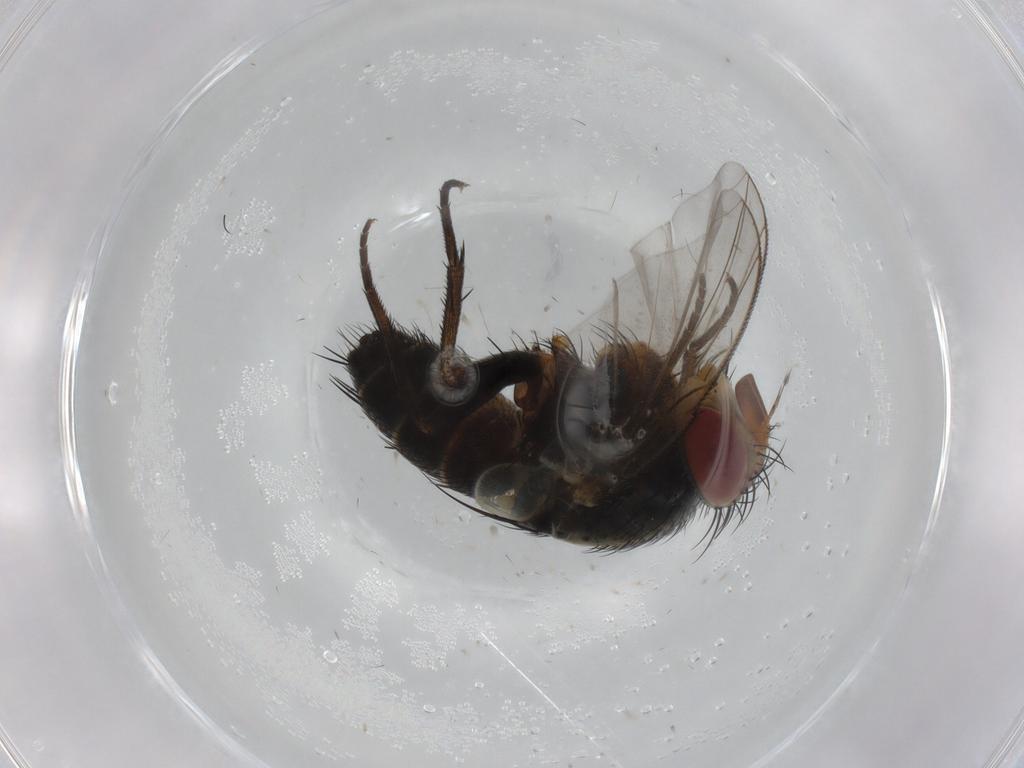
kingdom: Animalia
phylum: Arthropoda
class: Insecta
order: Diptera
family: Tachinidae
